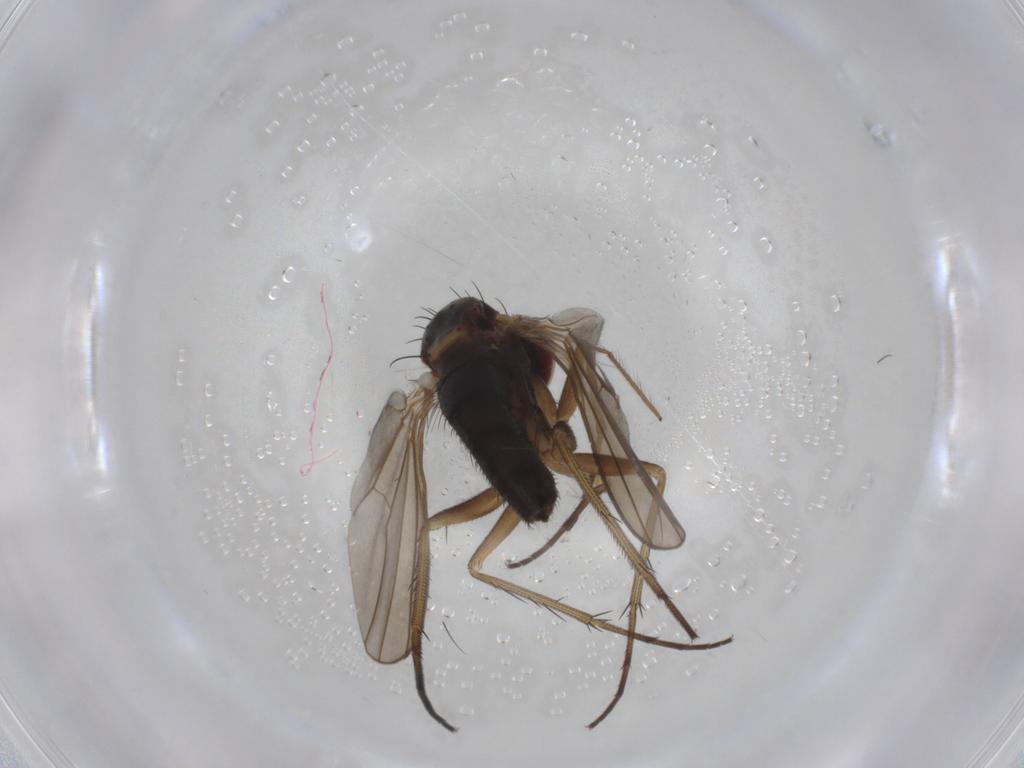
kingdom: Animalia
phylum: Arthropoda
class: Insecta
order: Diptera
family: Dolichopodidae
